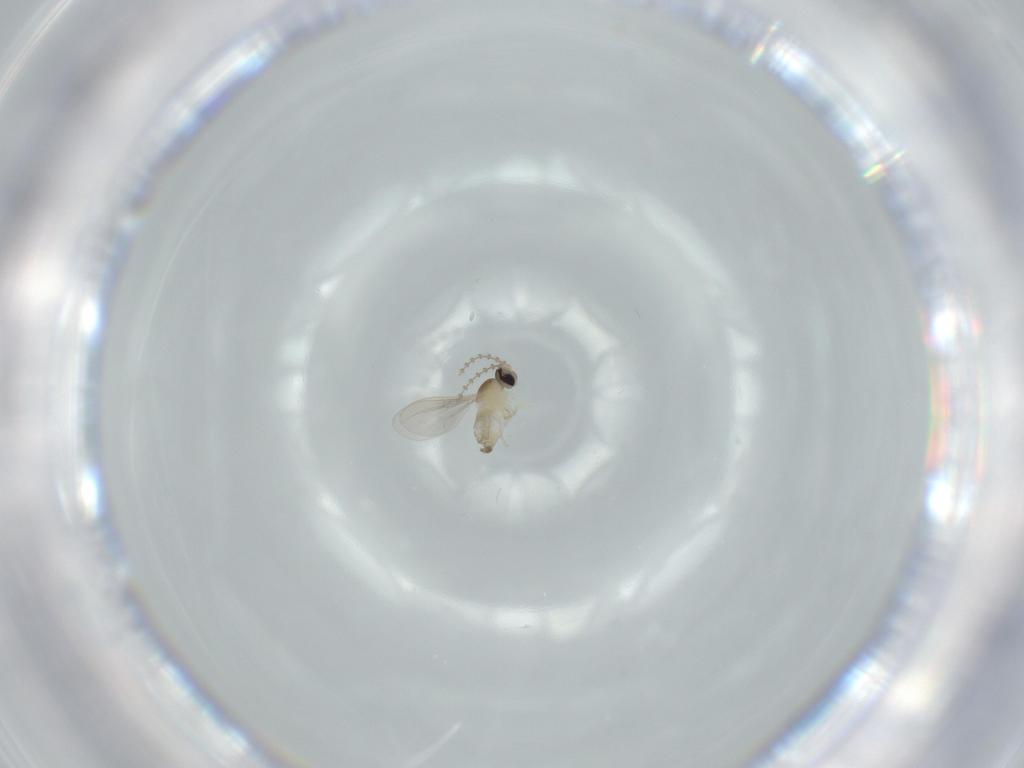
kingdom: Animalia
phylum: Arthropoda
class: Insecta
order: Diptera
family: Cecidomyiidae
